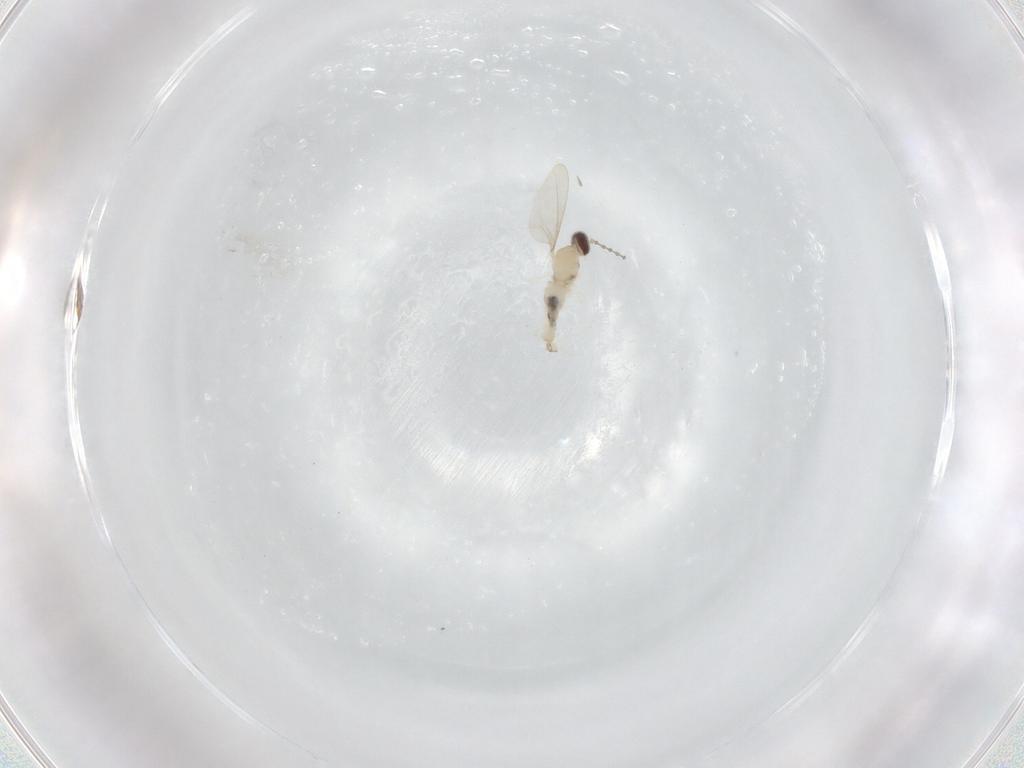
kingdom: Animalia
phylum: Arthropoda
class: Insecta
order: Diptera
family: Cecidomyiidae
